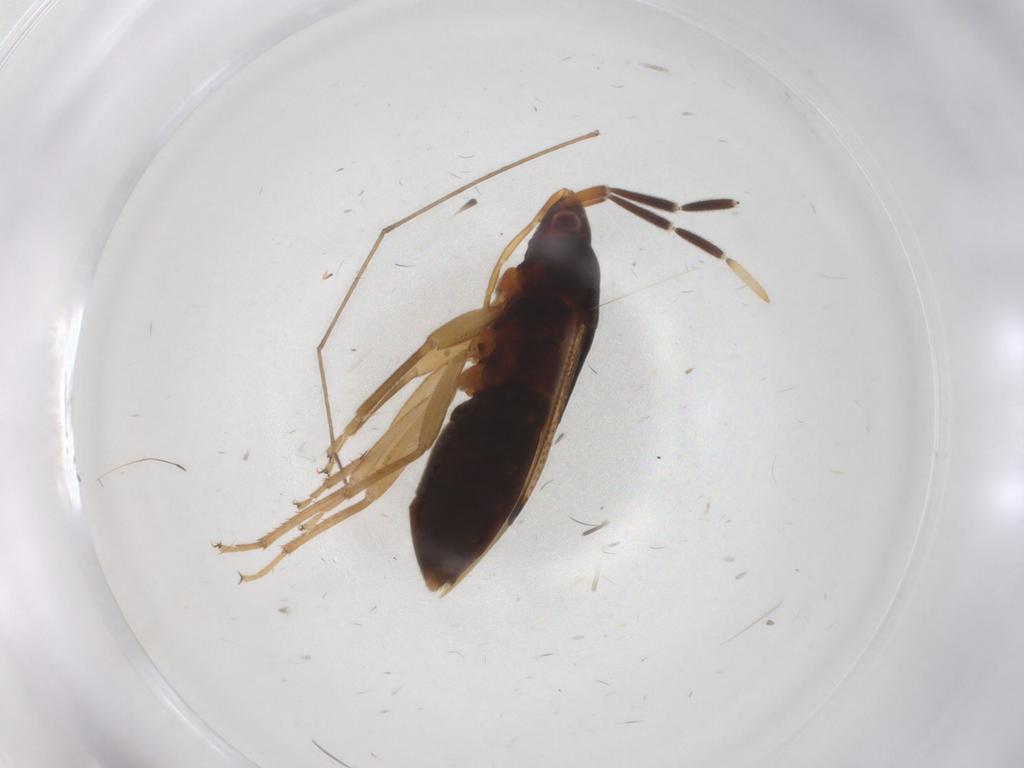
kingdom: Animalia
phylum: Arthropoda
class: Insecta
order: Hemiptera
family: Rhyparochromidae
